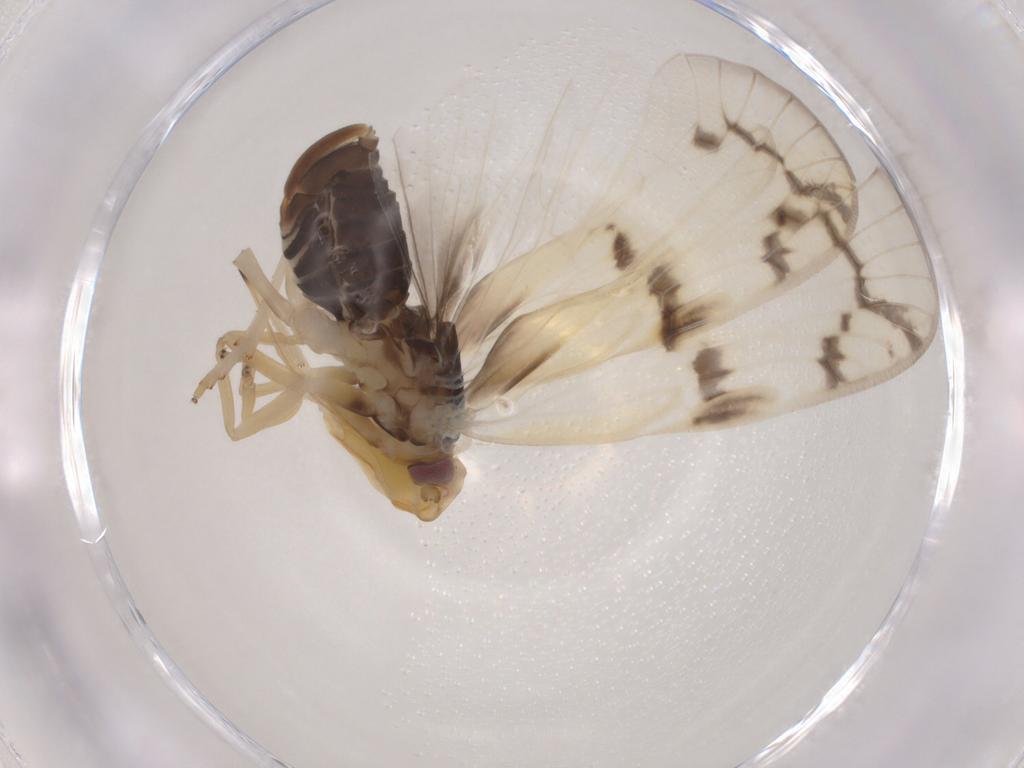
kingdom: Animalia
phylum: Arthropoda
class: Insecta
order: Hemiptera
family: Cixiidae
